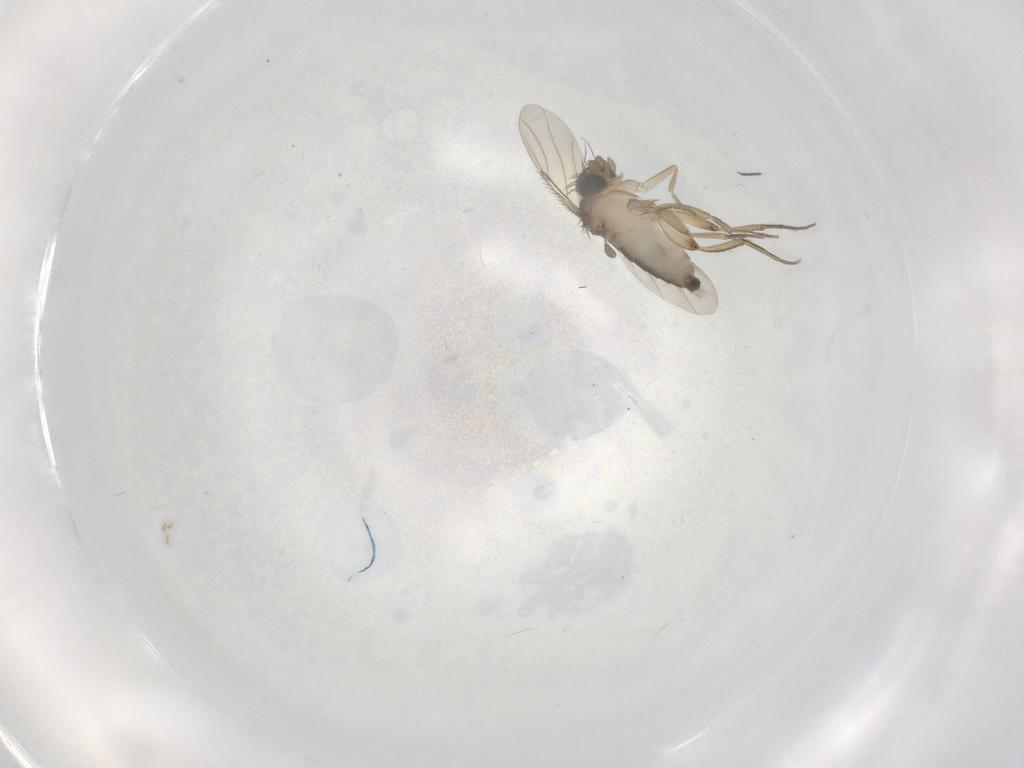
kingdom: Animalia
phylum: Arthropoda
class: Insecta
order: Diptera
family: Phoridae
